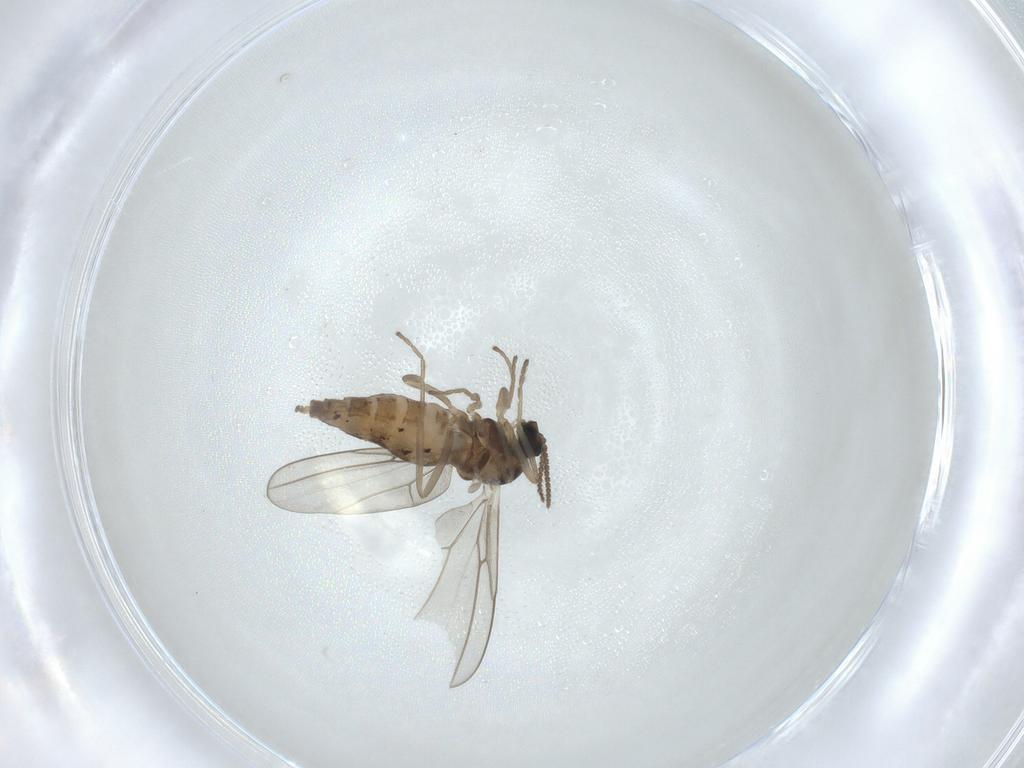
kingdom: Animalia
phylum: Arthropoda
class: Insecta
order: Diptera
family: Cecidomyiidae
